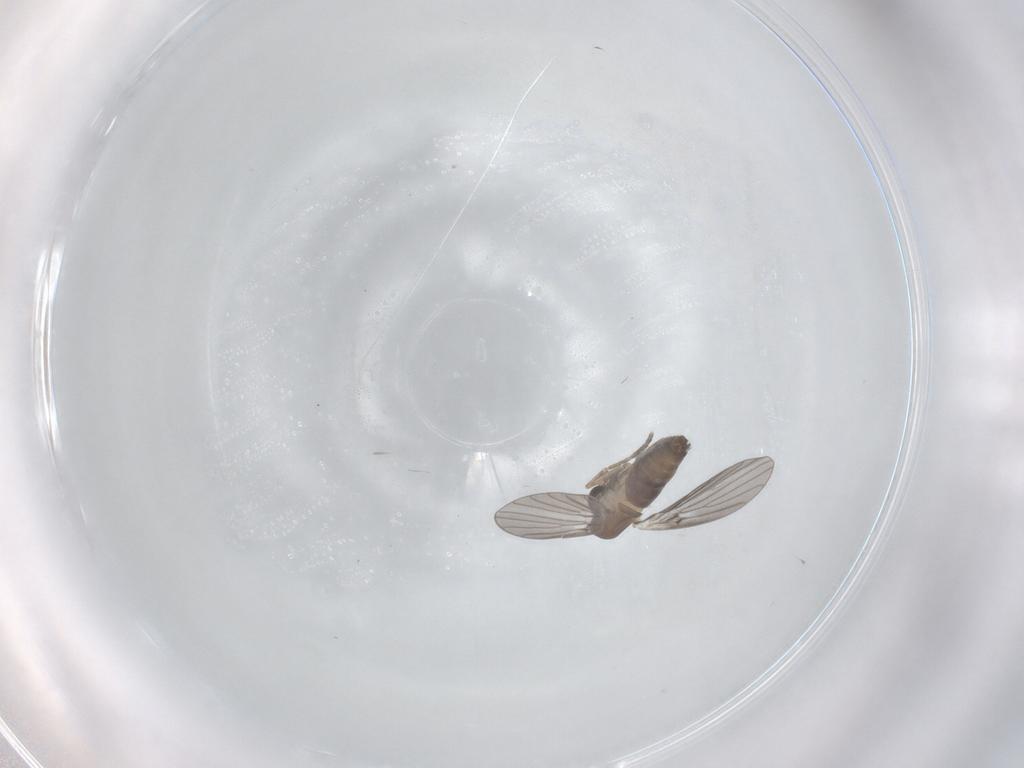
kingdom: Animalia
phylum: Arthropoda
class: Insecta
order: Diptera
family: Psychodidae
